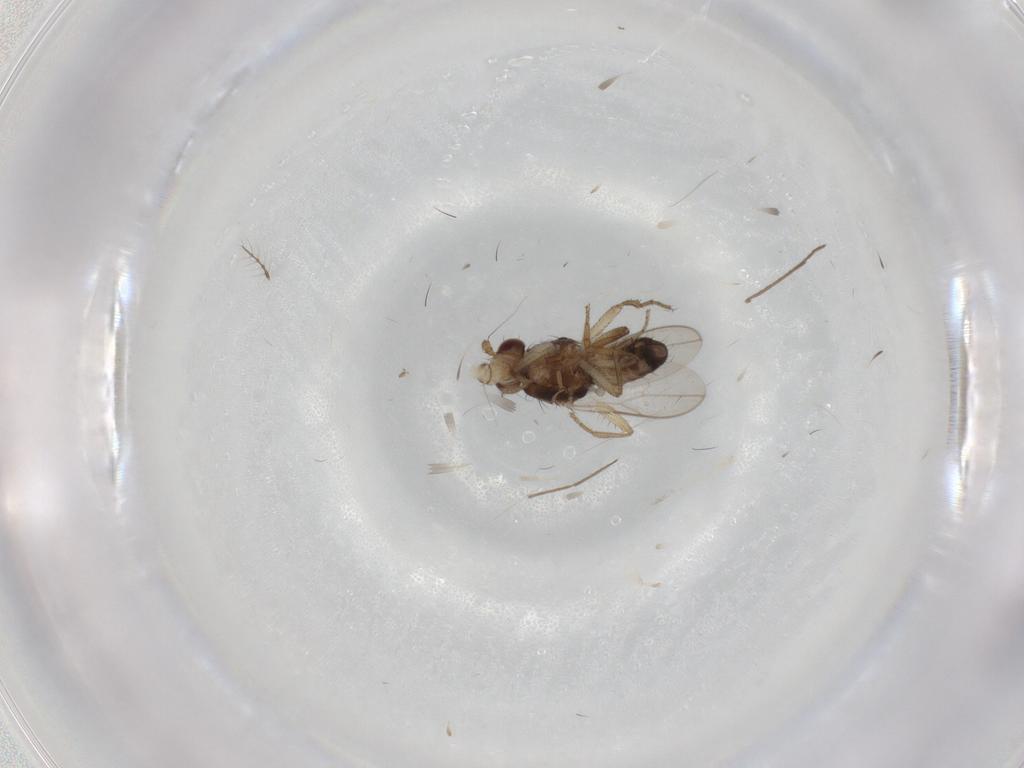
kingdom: Animalia
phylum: Arthropoda
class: Insecta
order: Diptera
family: Sphaeroceridae
